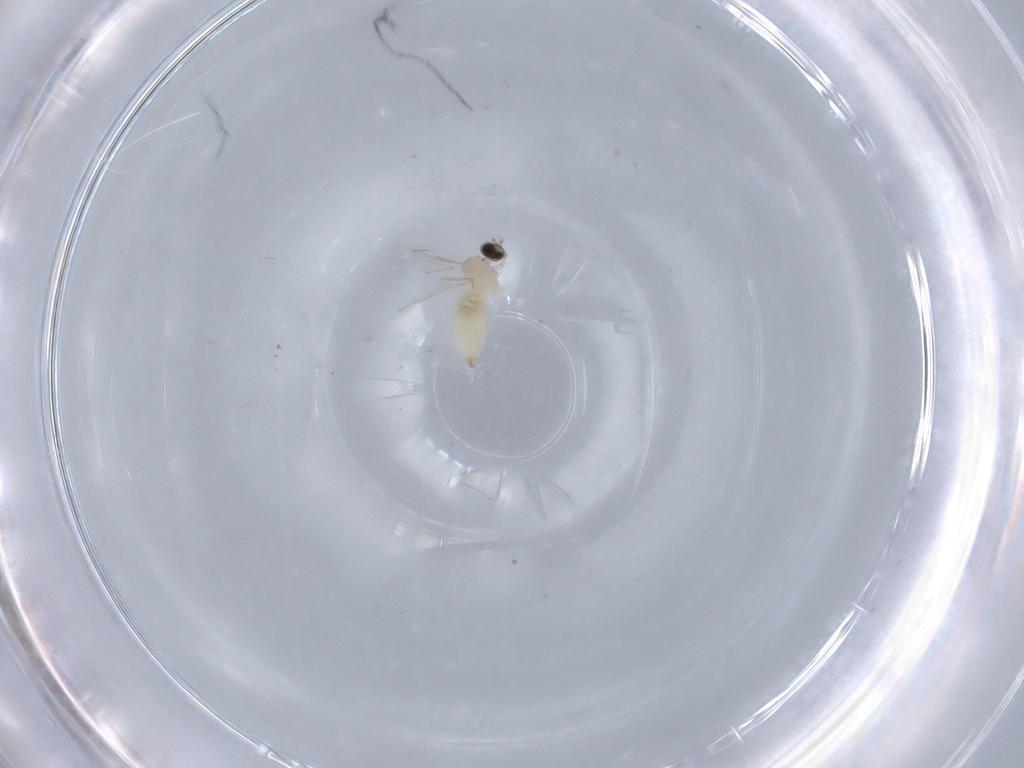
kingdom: Animalia
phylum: Arthropoda
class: Insecta
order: Diptera
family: Cecidomyiidae
